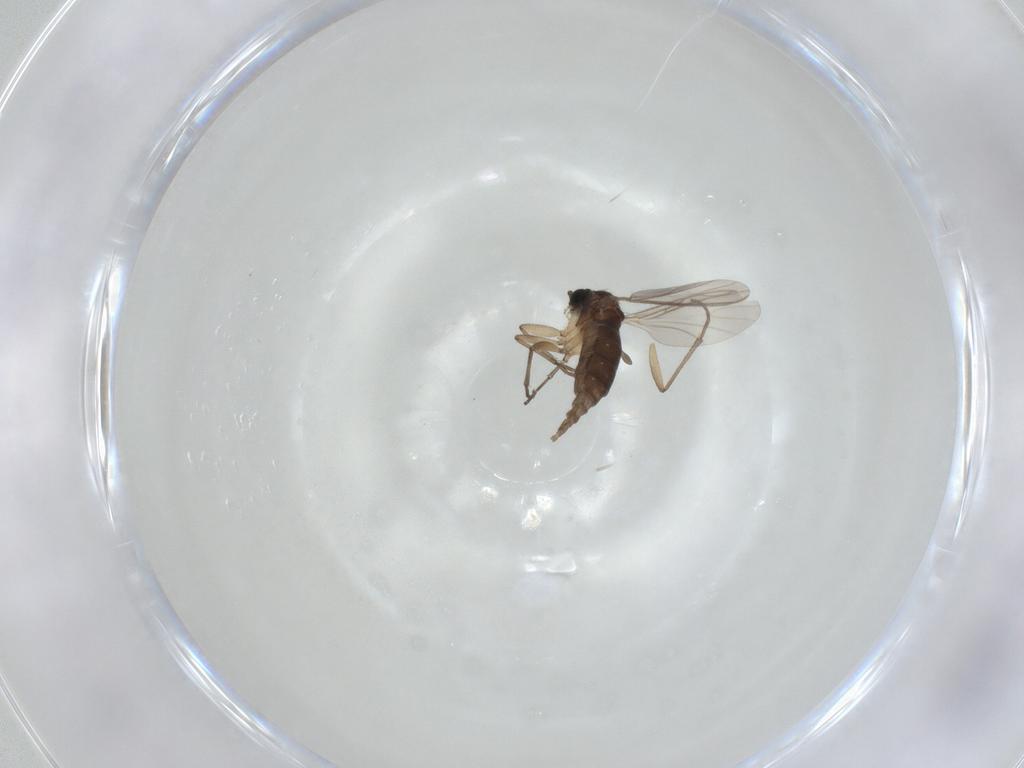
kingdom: Animalia
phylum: Arthropoda
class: Insecta
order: Diptera
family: Sciaridae
